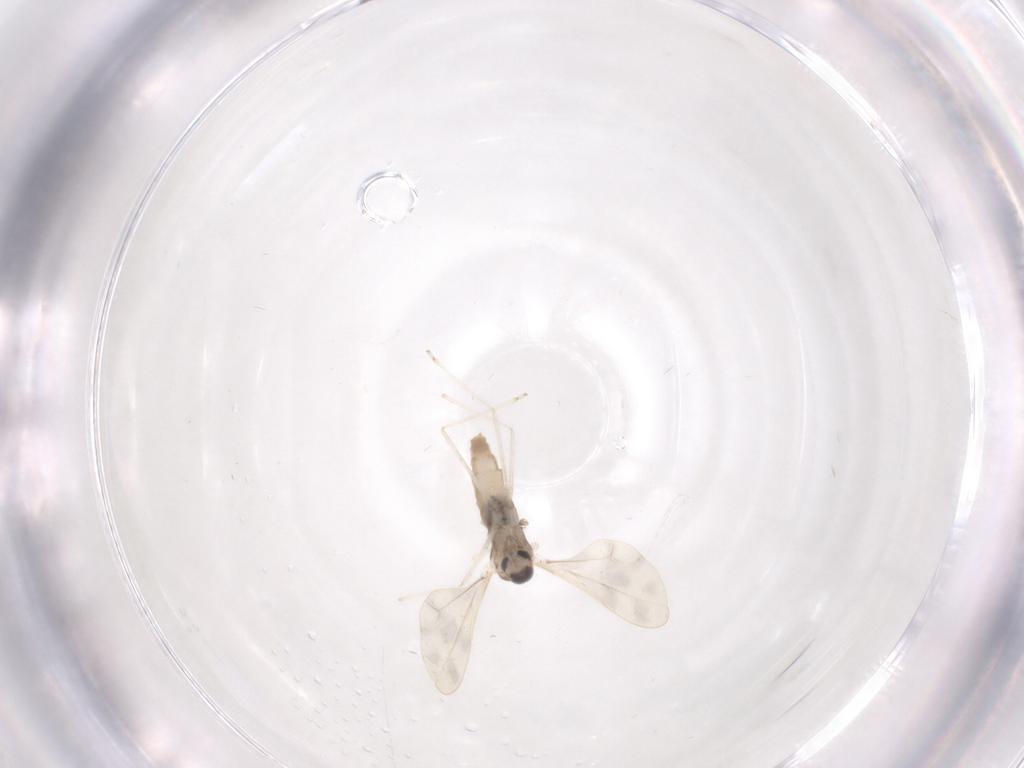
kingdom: Animalia
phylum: Arthropoda
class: Insecta
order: Diptera
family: Cecidomyiidae
